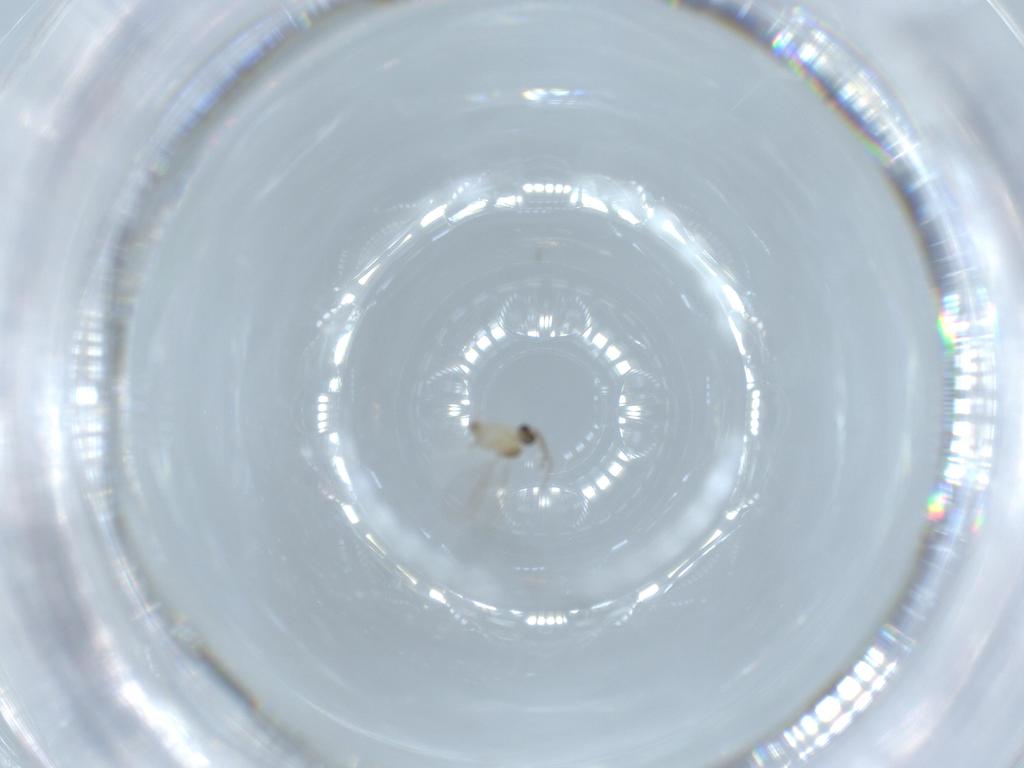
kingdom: Animalia
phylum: Arthropoda
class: Insecta
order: Diptera
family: Cecidomyiidae
